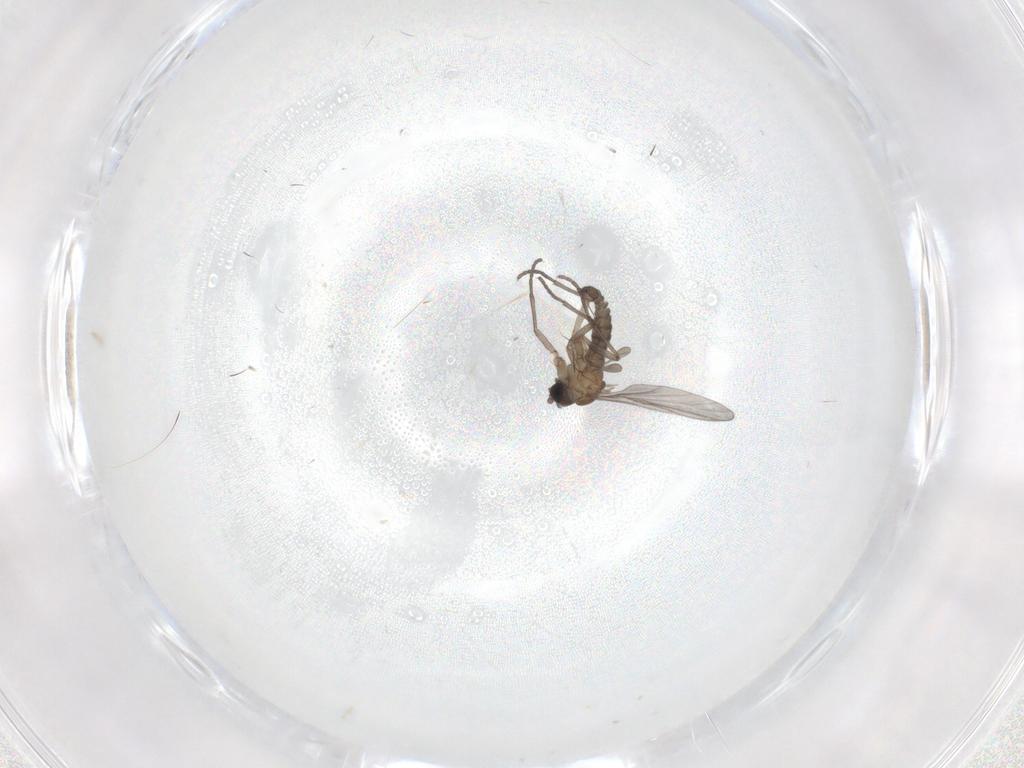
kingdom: Animalia
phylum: Arthropoda
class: Insecta
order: Diptera
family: Sciaridae
